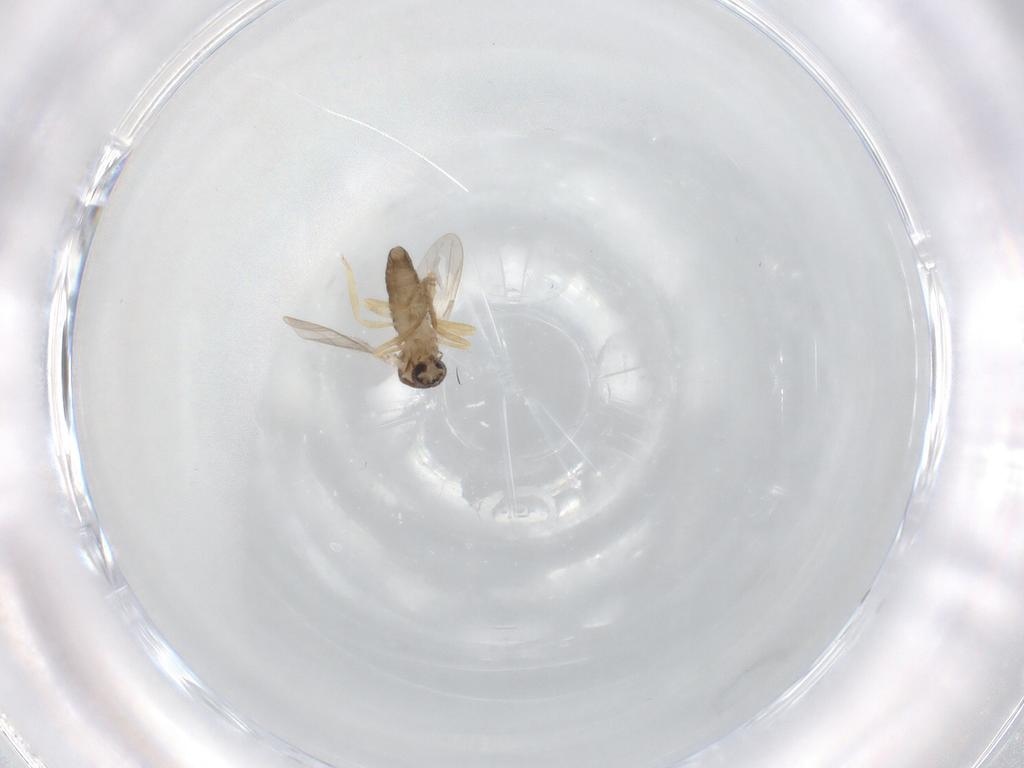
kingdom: Animalia
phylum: Arthropoda
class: Insecta
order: Diptera
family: Ceratopogonidae
